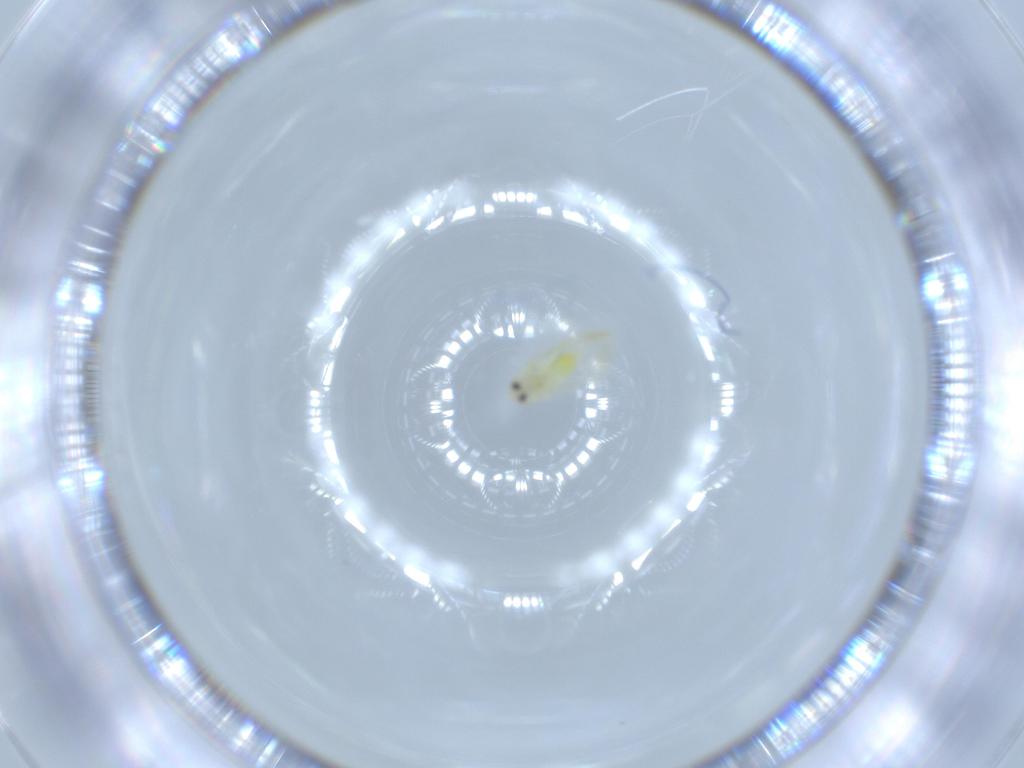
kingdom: Animalia
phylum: Arthropoda
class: Insecta
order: Hemiptera
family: Aleyrodidae
